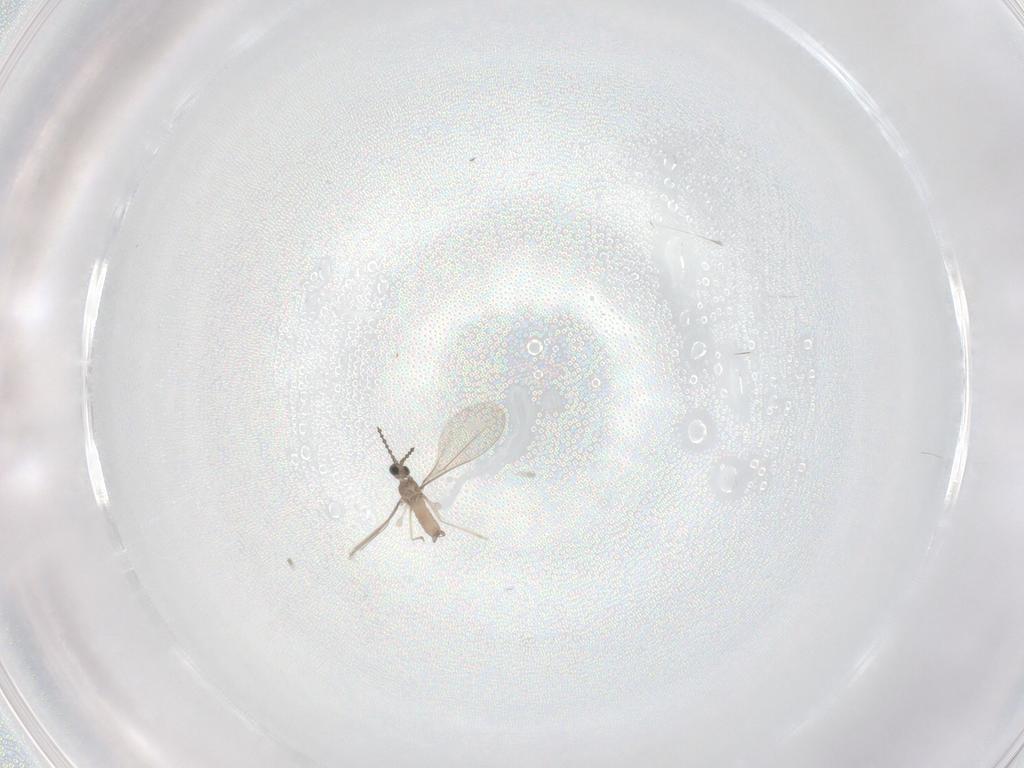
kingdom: Animalia
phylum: Arthropoda
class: Insecta
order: Diptera
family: Cecidomyiidae
